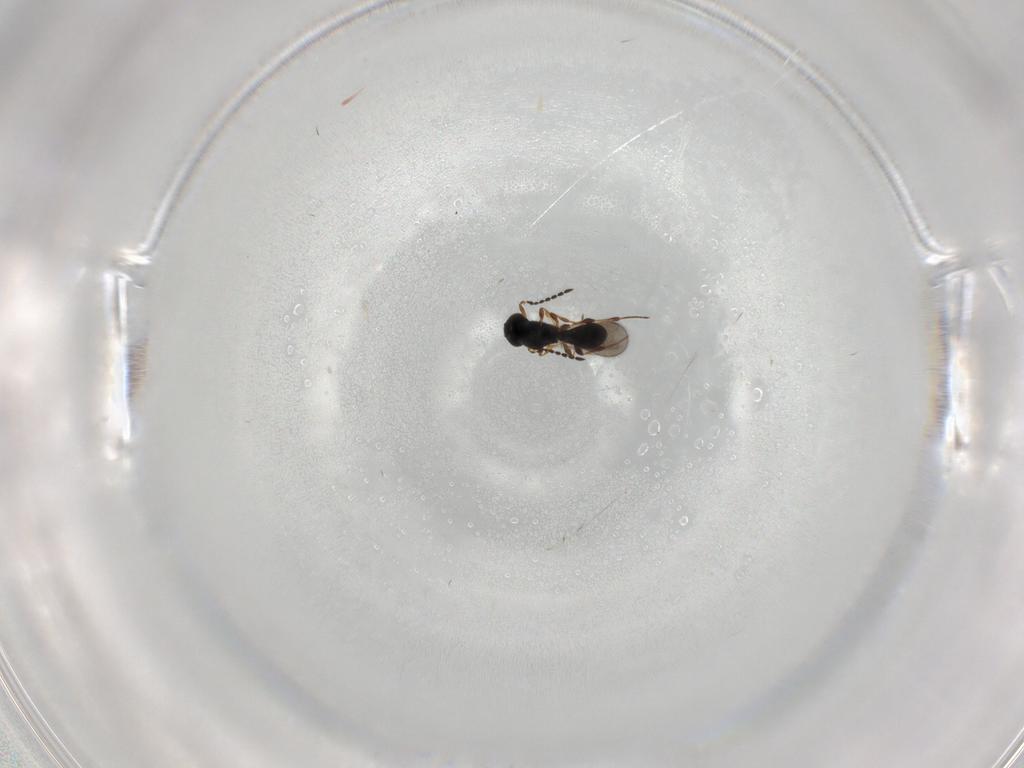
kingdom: Animalia
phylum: Arthropoda
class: Insecta
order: Hymenoptera
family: Platygastridae
